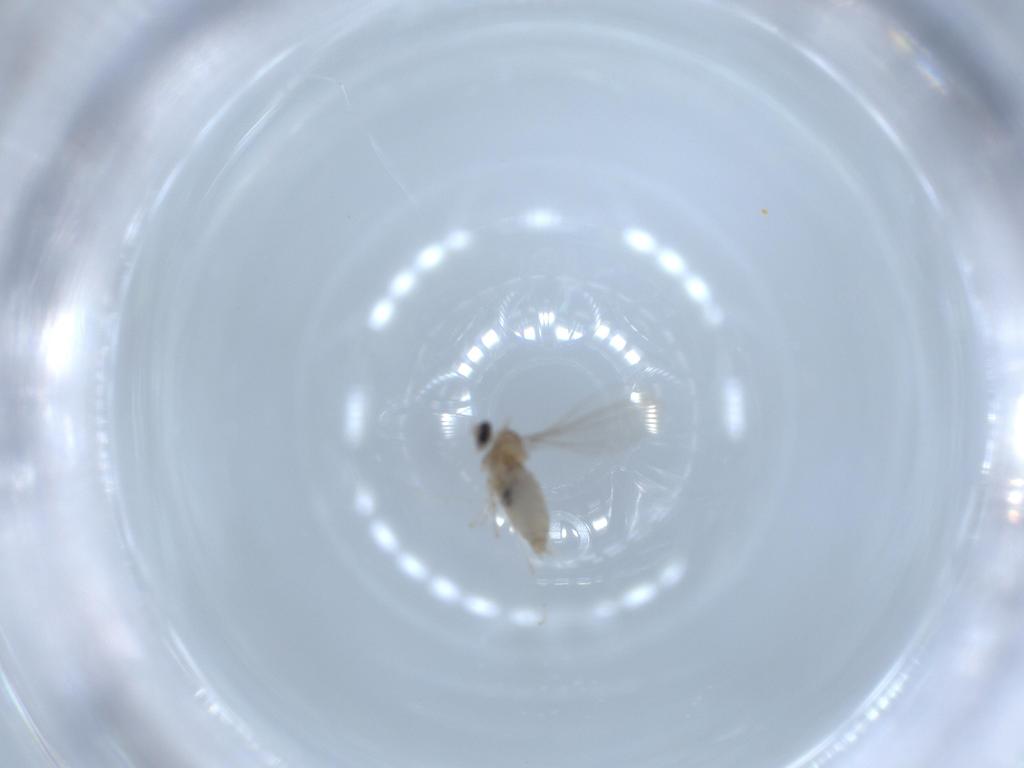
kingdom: Animalia
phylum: Arthropoda
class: Insecta
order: Diptera
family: Cecidomyiidae
